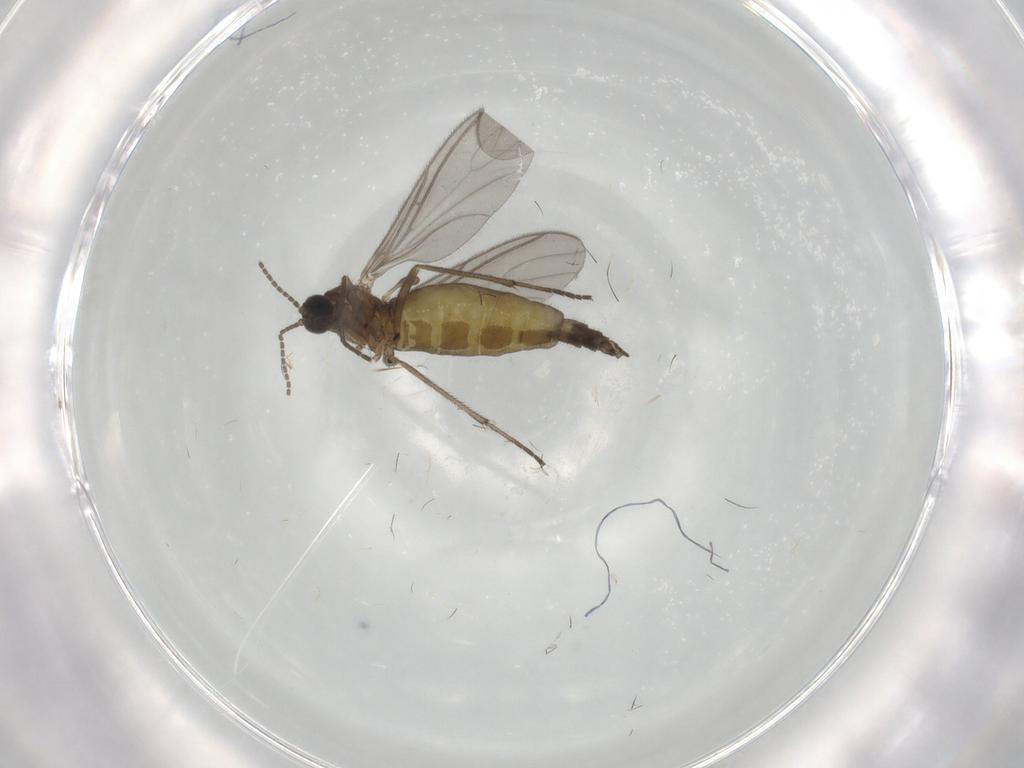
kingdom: Animalia
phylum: Arthropoda
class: Insecta
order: Diptera
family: Sciaridae
